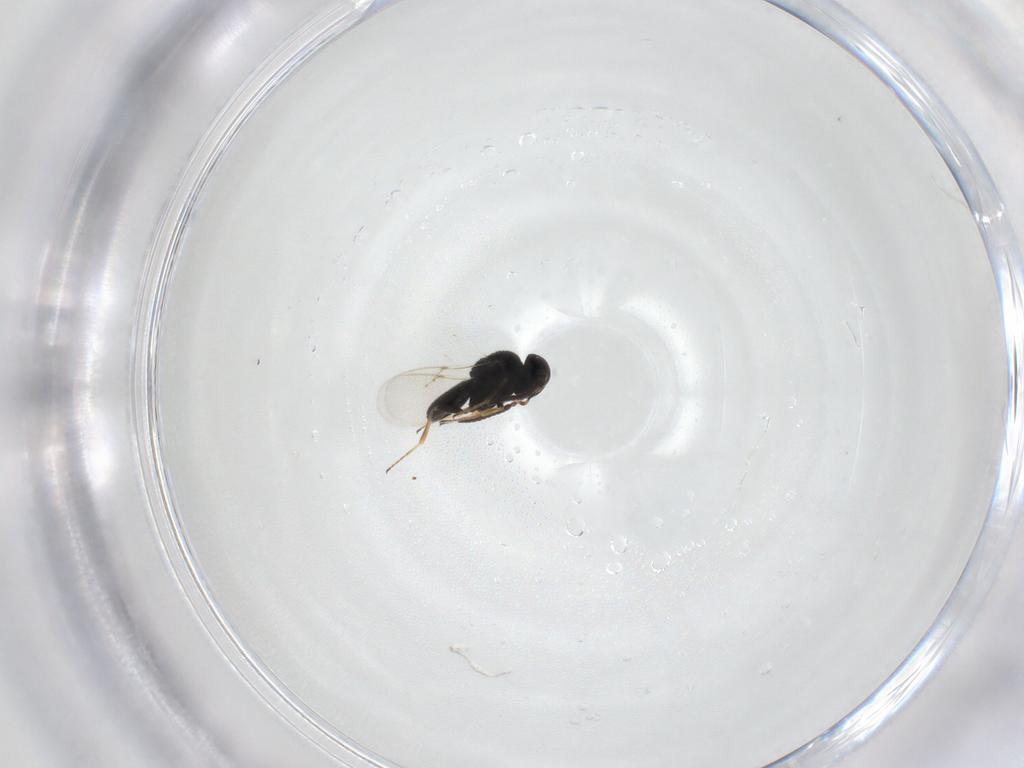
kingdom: Animalia
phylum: Arthropoda
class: Insecta
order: Hymenoptera
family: Scelionidae
